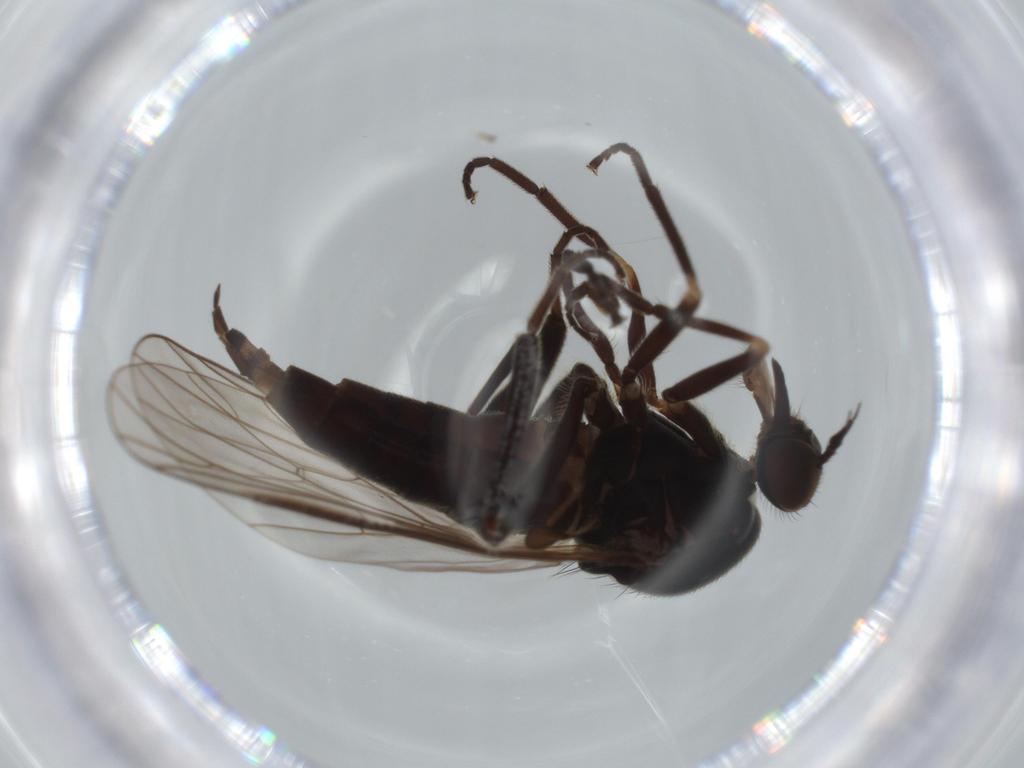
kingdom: Animalia
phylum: Arthropoda
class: Insecta
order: Diptera
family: Empididae
